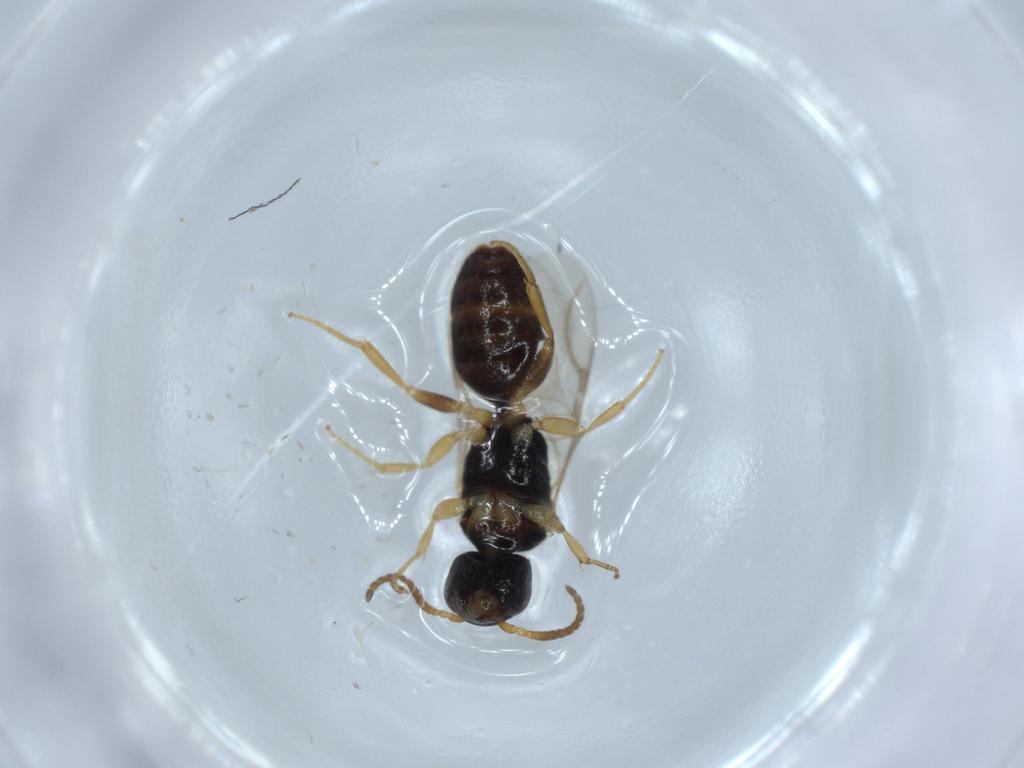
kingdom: Animalia
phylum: Arthropoda
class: Insecta
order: Hymenoptera
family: Bethylidae
